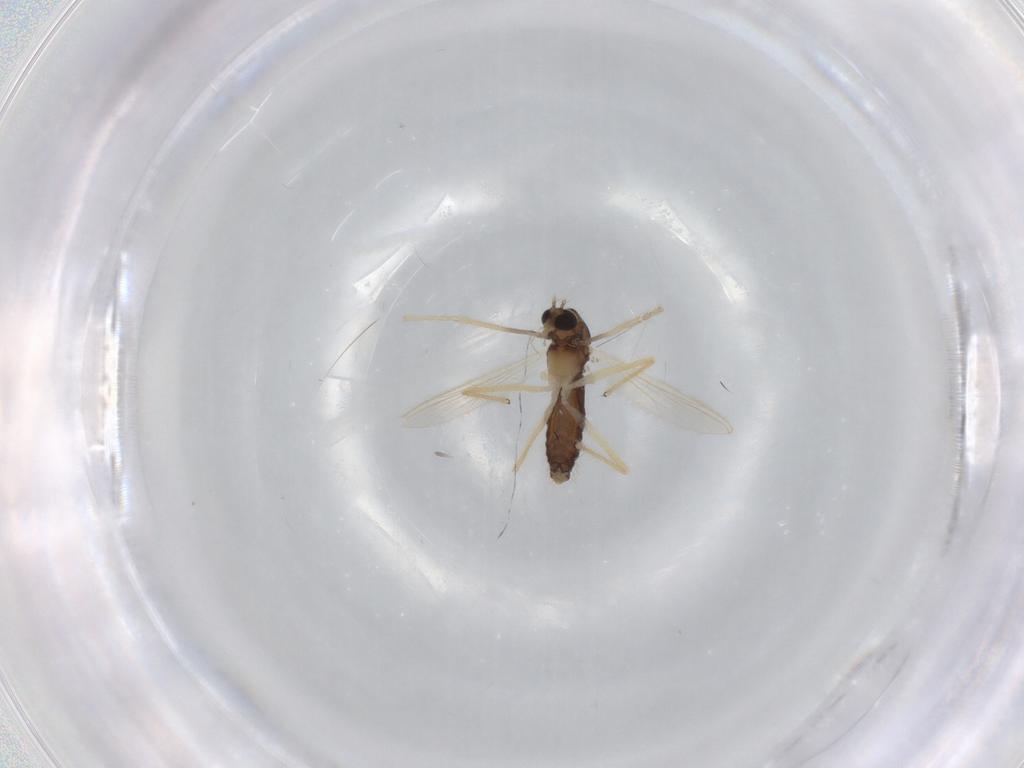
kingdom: Animalia
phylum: Arthropoda
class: Insecta
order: Diptera
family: Chironomidae
